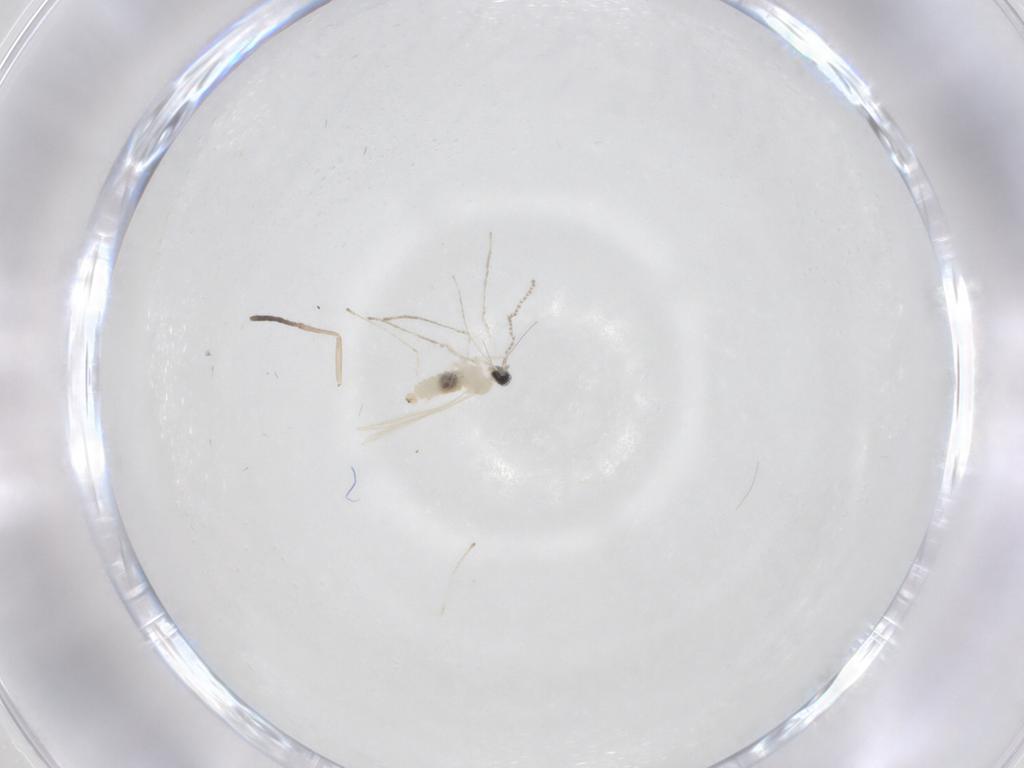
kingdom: Animalia
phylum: Arthropoda
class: Insecta
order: Diptera
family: Cecidomyiidae
